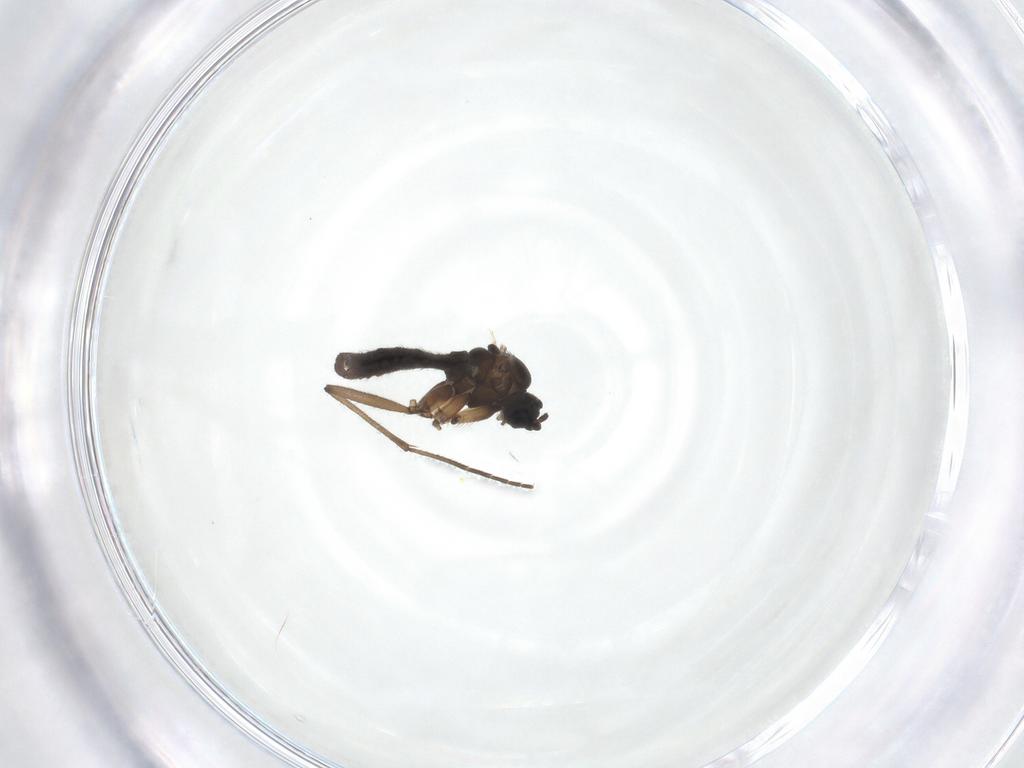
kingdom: Animalia
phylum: Arthropoda
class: Insecta
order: Diptera
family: Sciaridae
